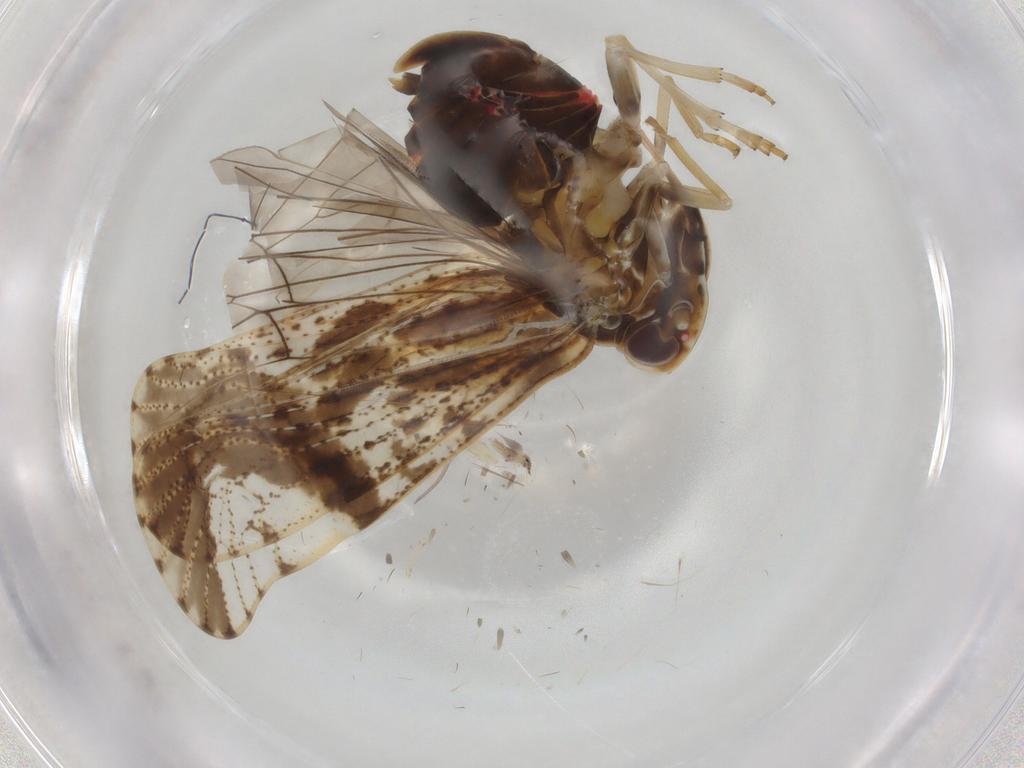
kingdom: Animalia
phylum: Arthropoda
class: Insecta
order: Hemiptera
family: Cixiidae
